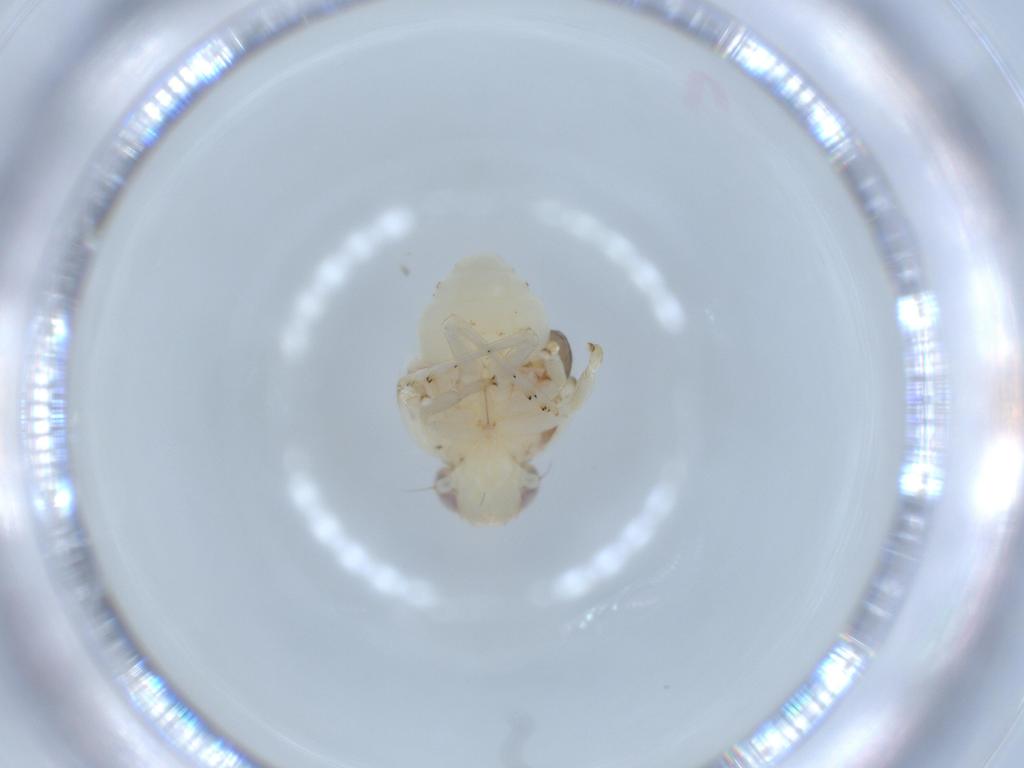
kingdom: Animalia
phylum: Arthropoda
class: Insecta
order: Hemiptera
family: Nogodinidae
